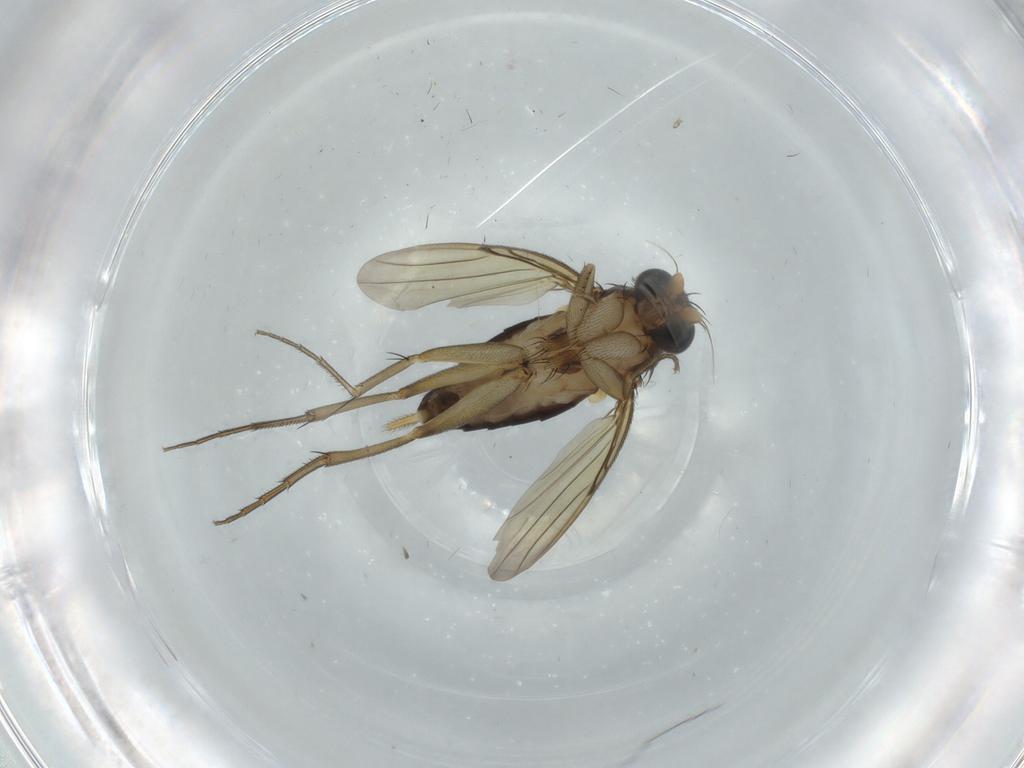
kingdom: Animalia
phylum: Arthropoda
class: Insecta
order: Diptera
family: Phoridae
